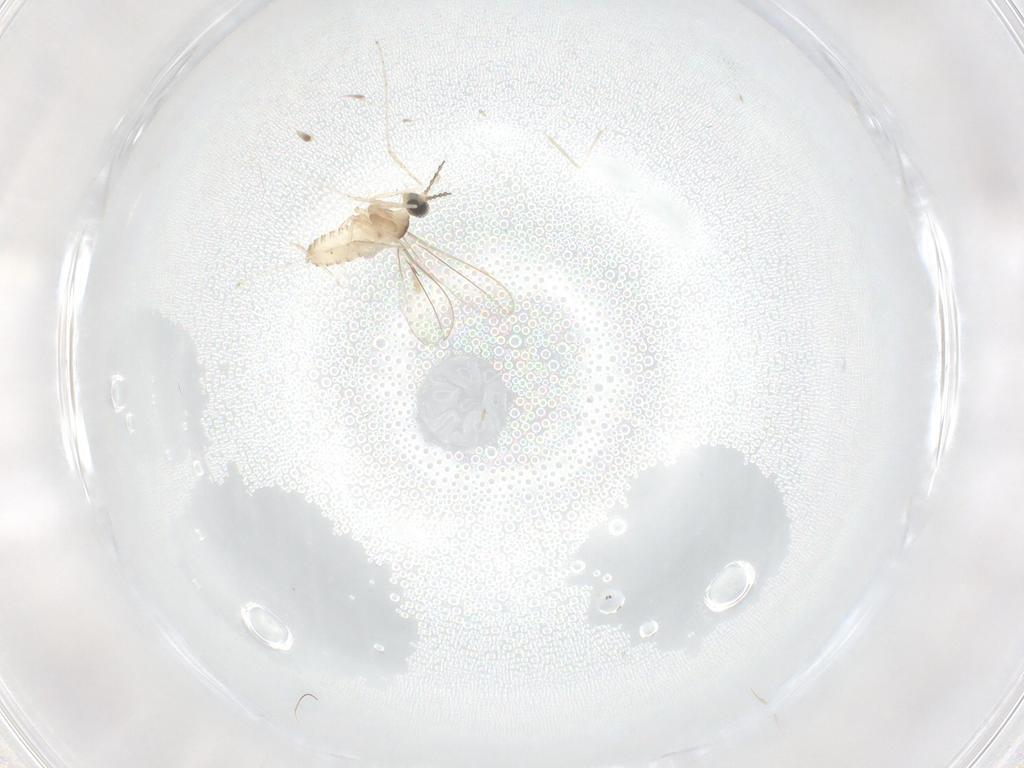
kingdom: Animalia
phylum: Arthropoda
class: Insecta
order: Diptera
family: Cecidomyiidae
